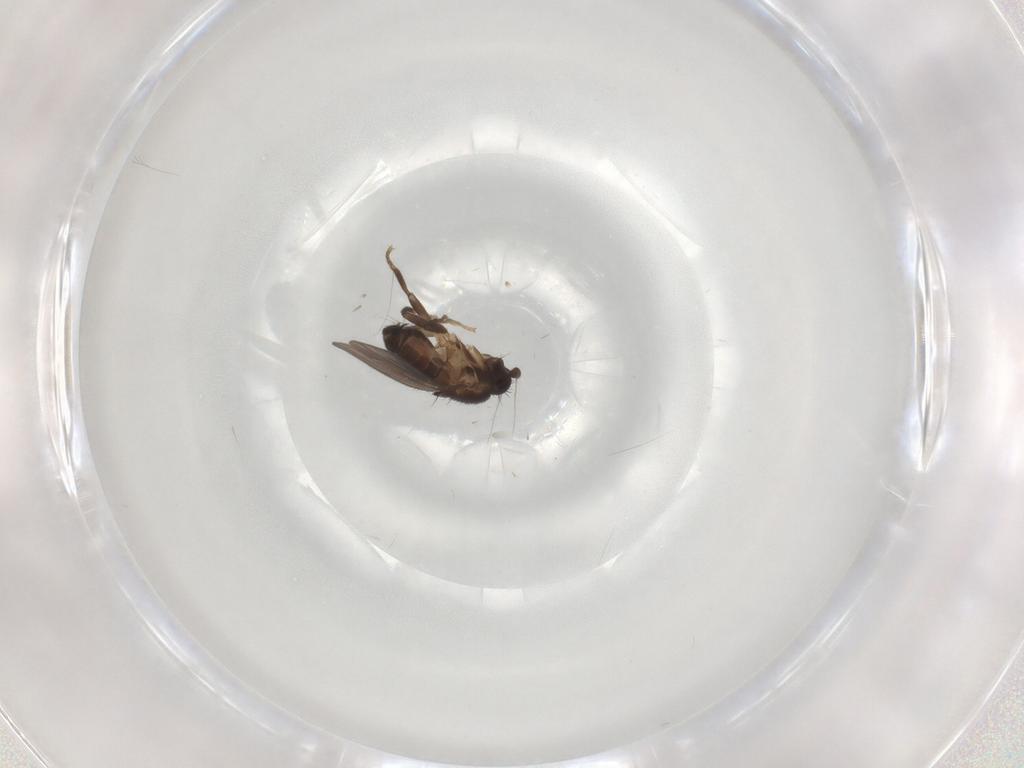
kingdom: Animalia
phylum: Arthropoda
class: Insecta
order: Diptera
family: Sphaeroceridae
